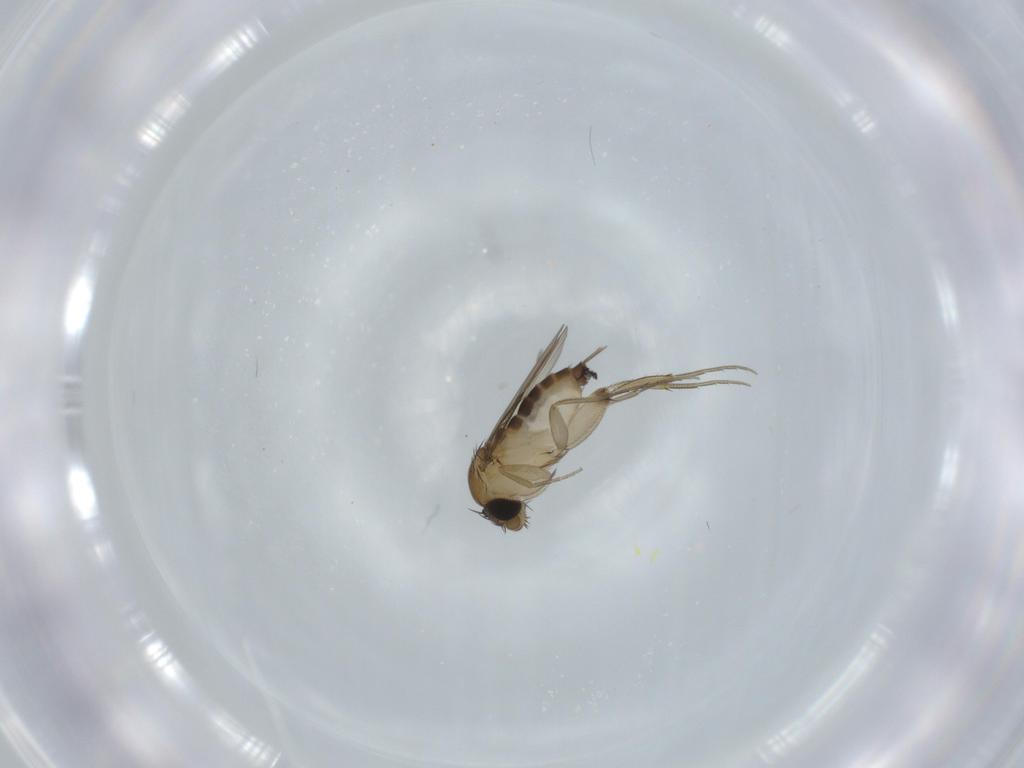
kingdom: Animalia
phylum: Arthropoda
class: Insecta
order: Diptera
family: Phoridae
